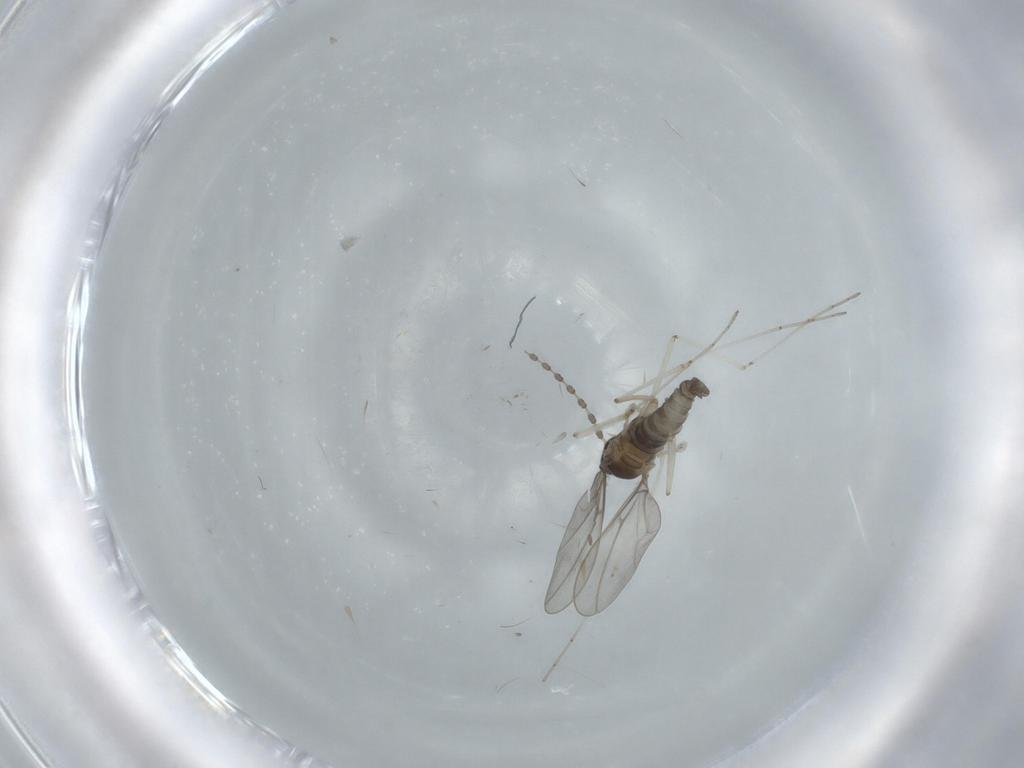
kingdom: Animalia
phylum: Arthropoda
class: Insecta
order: Diptera
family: Cecidomyiidae
